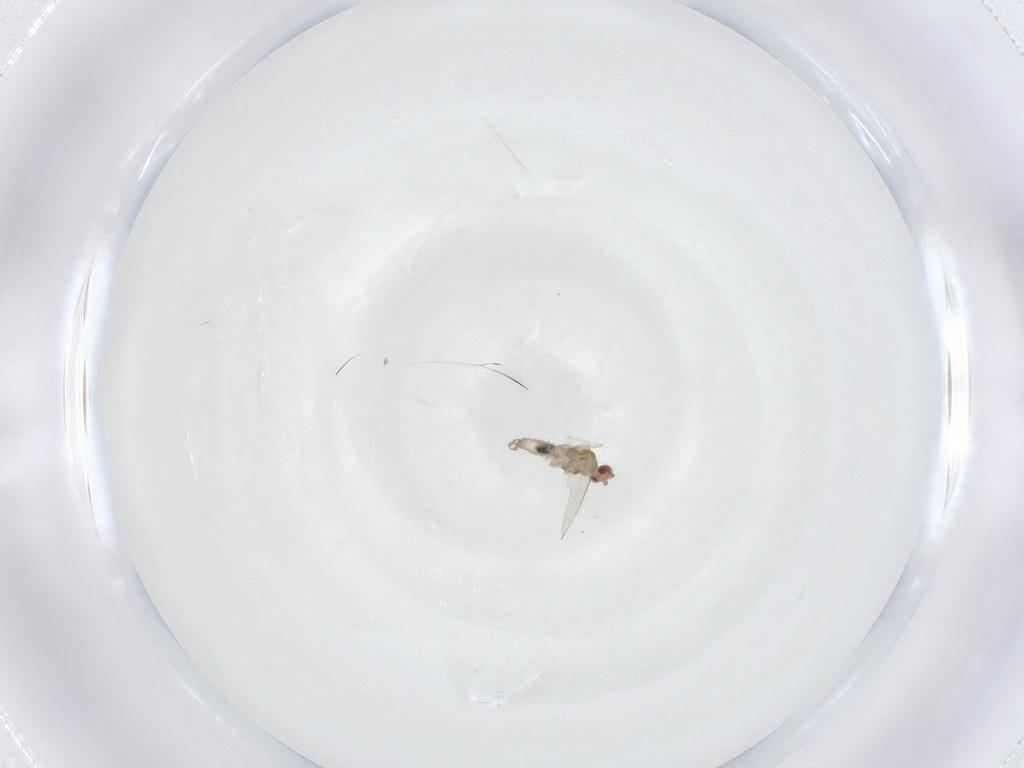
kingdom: Animalia
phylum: Arthropoda
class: Insecta
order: Diptera
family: Cecidomyiidae
